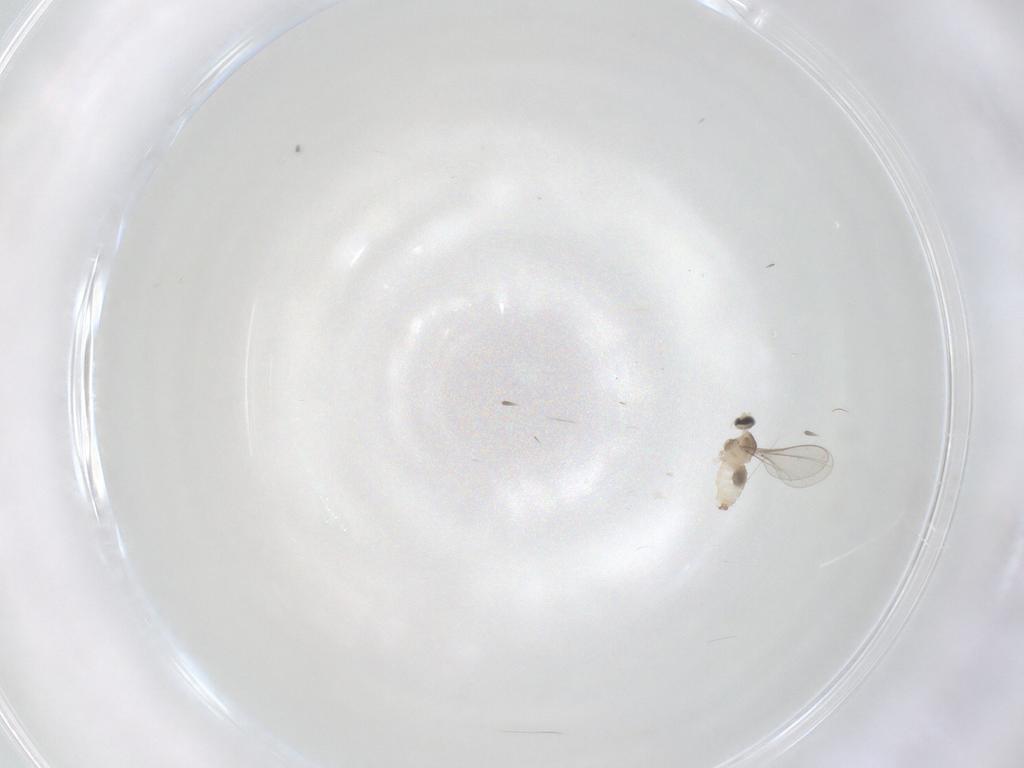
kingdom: Animalia
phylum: Arthropoda
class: Insecta
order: Diptera
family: Cecidomyiidae
